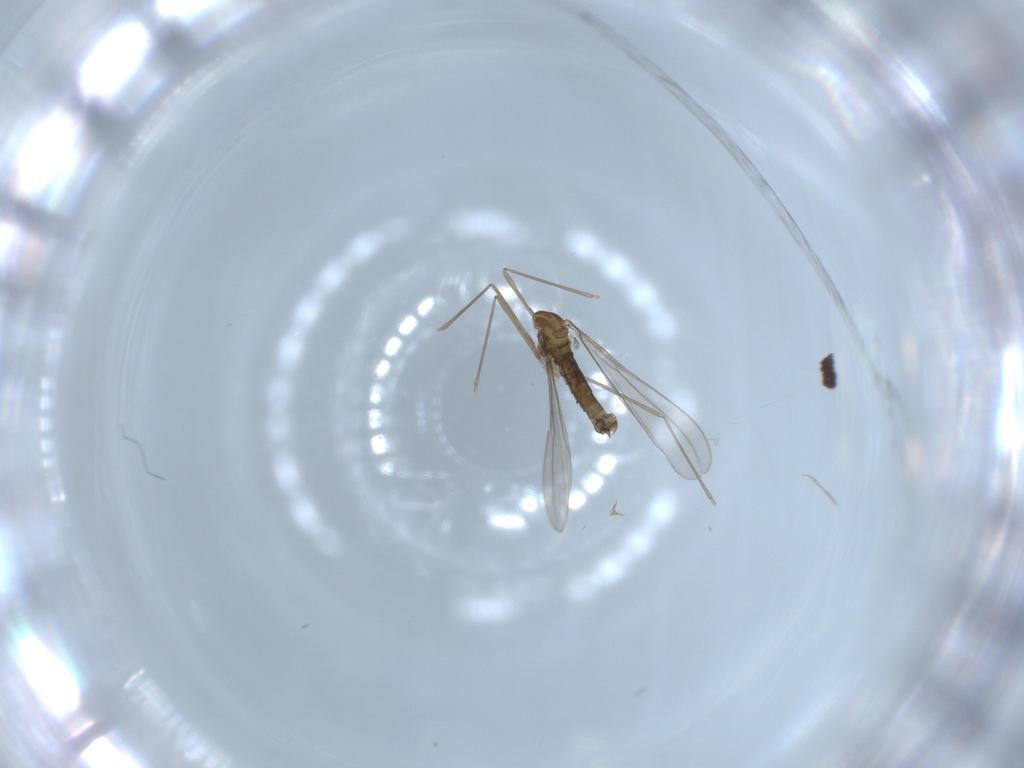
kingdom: Animalia
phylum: Arthropoda
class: Insecta
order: Diptera
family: Cecidomyiidae
